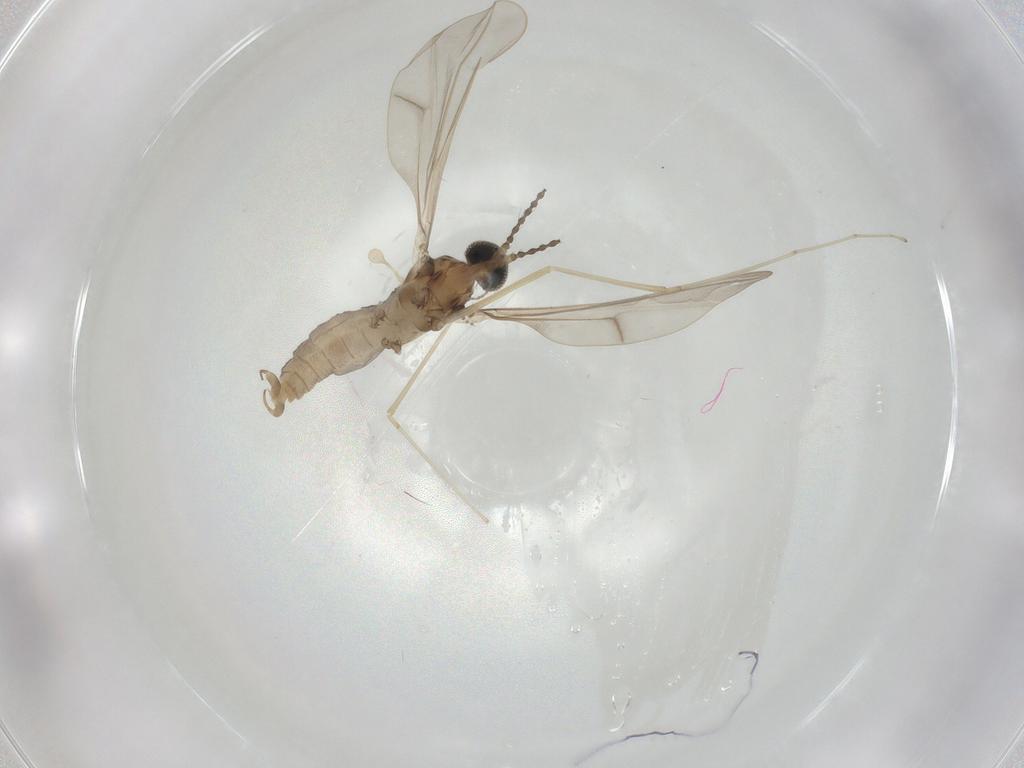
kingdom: Animalia
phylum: Arthropoda
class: Insecta
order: Diptera
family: Cecidomyiidae
